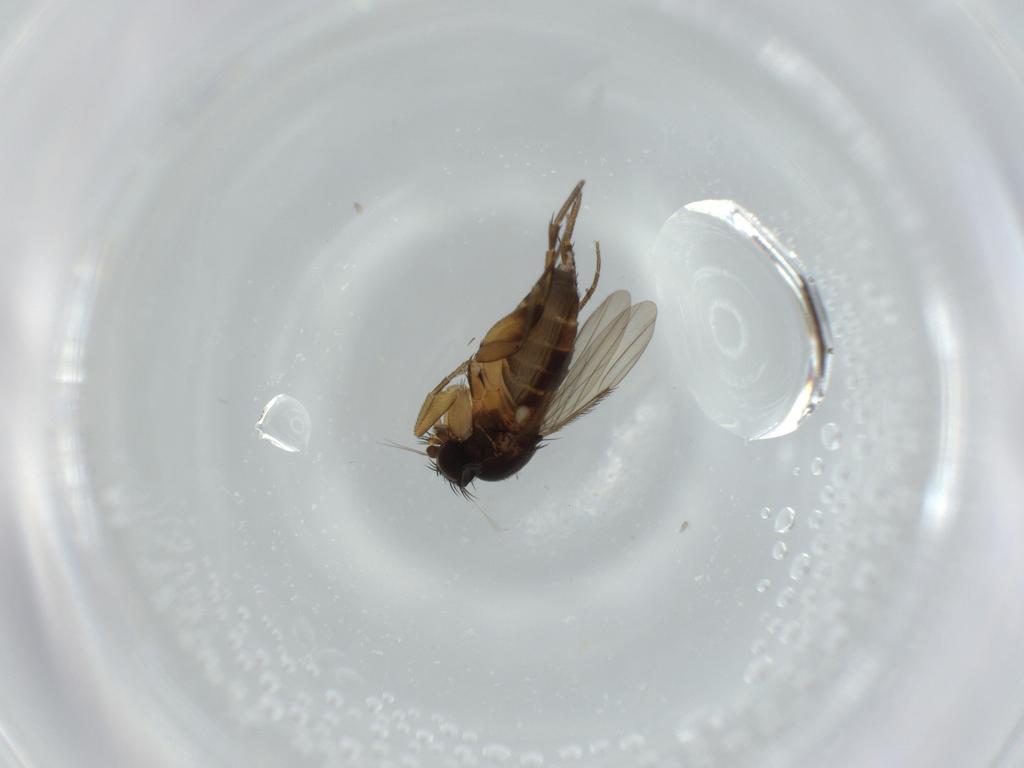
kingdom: Animalia
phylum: Arthropoda
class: Insecta
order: Diptera
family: Phoridae
